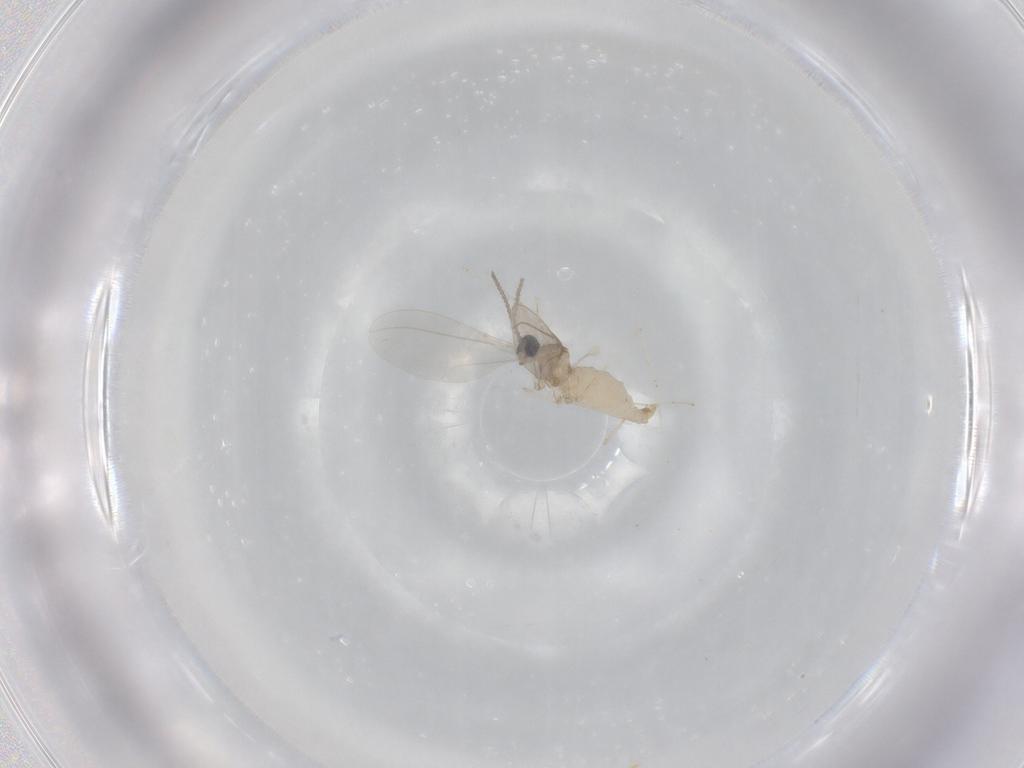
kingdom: Animalia
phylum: Arthropoda
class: Insecta
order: Diptera
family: Cecidomyiidae
